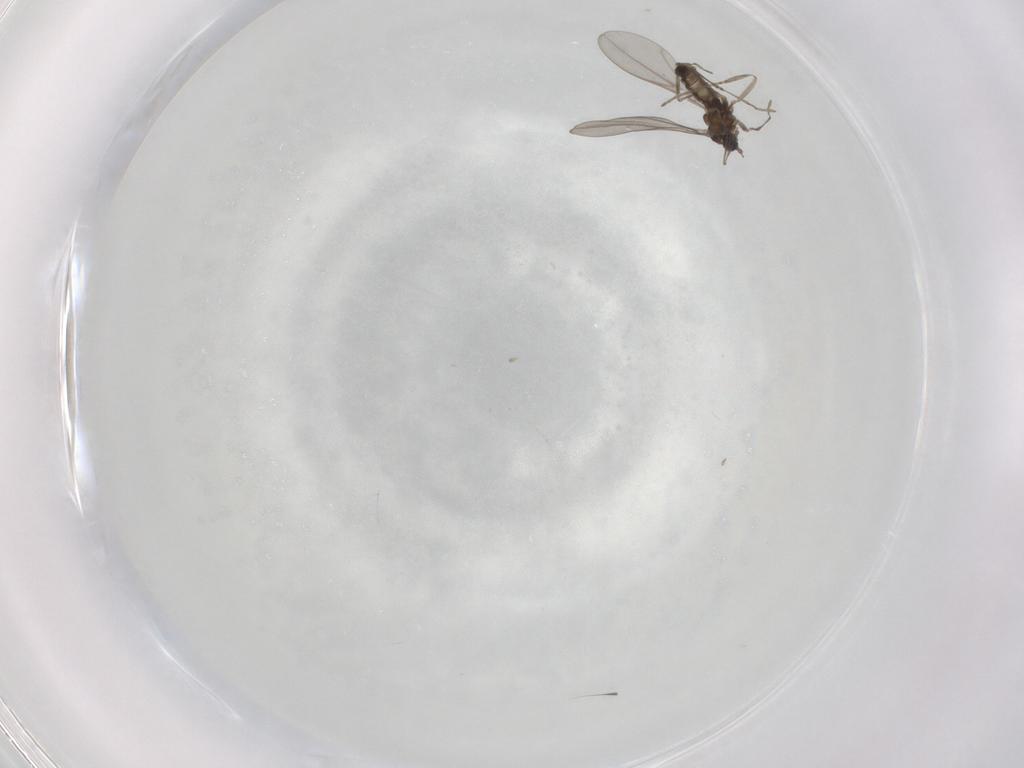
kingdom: Animalia
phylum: Arthropoda
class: Insecta
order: Diptera
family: Cecidomyiidae
